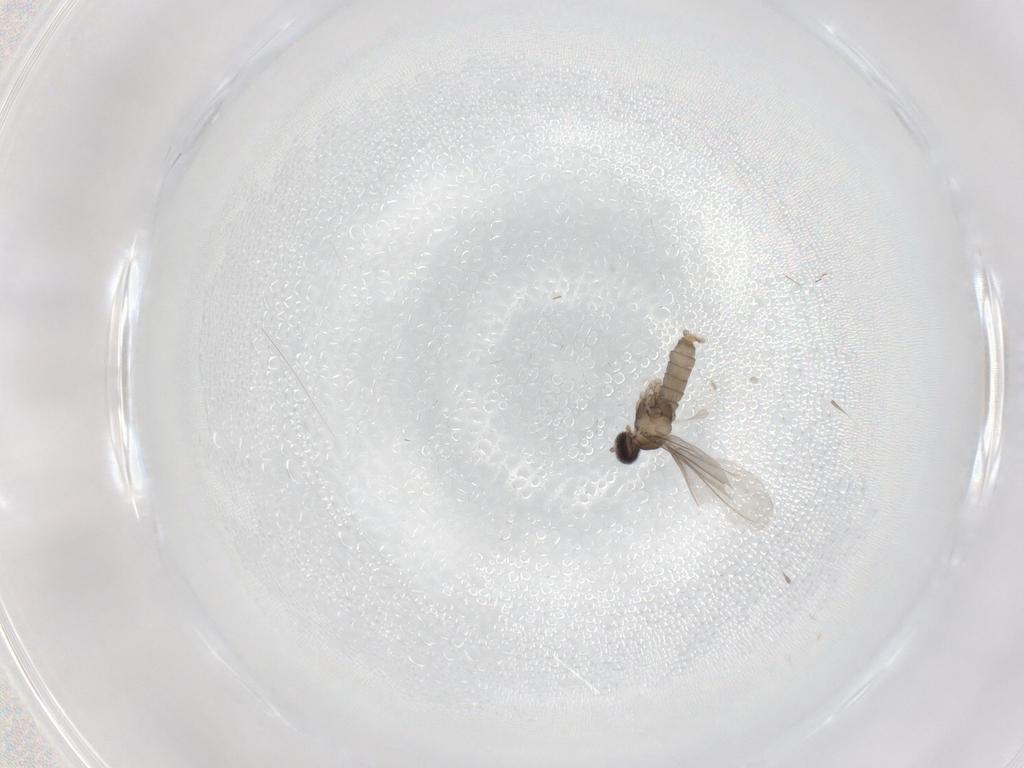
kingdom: Animalia
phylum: Arthropoda
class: Insecta
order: Diptera
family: Cecidomyiidae
